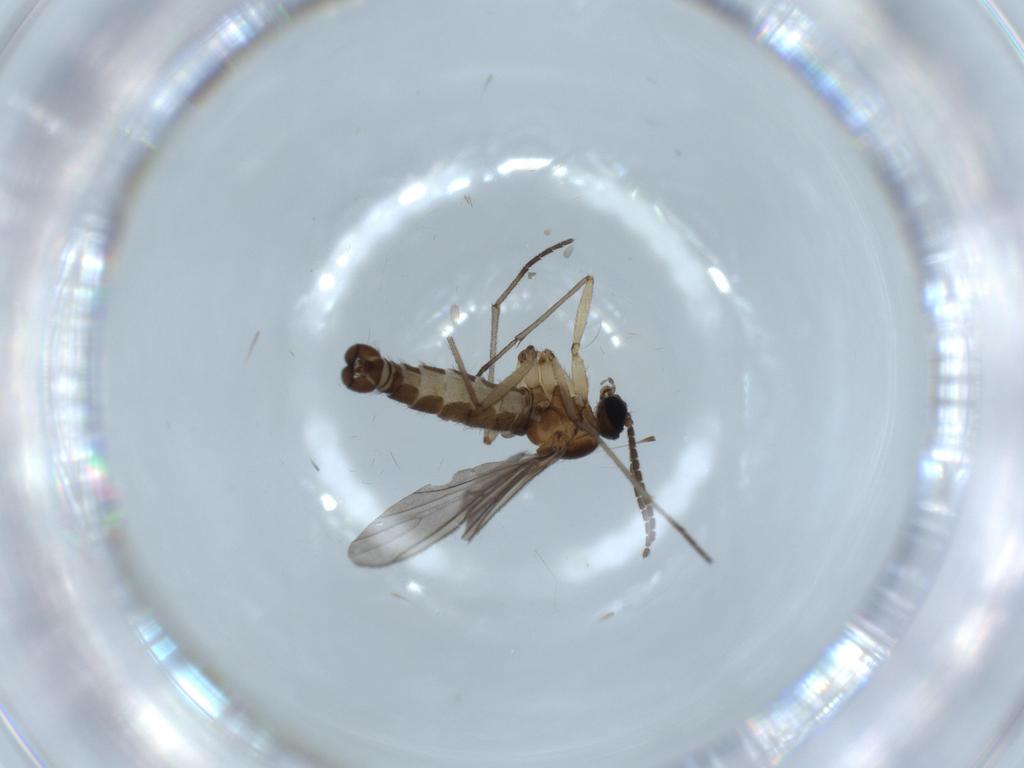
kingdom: Animalia
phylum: Arthropoda
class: Insecta
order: Diptera
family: Sciaridae
